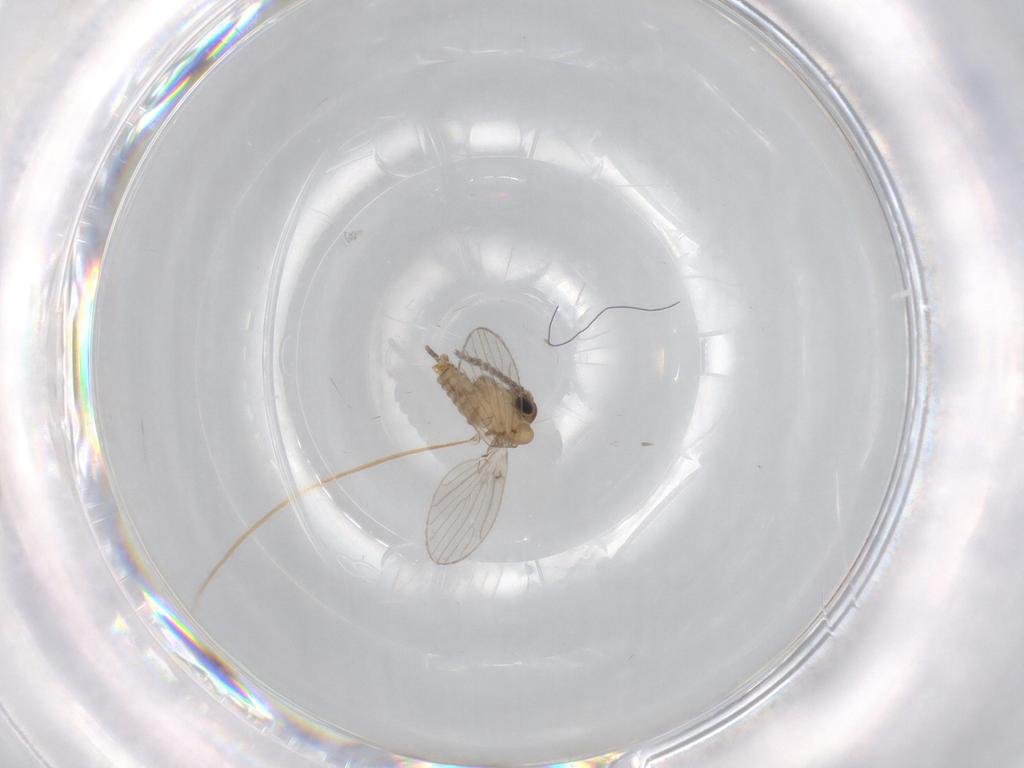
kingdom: Animalia
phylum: Arthropoda
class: Insecta
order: Diptera
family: Psychodidae
